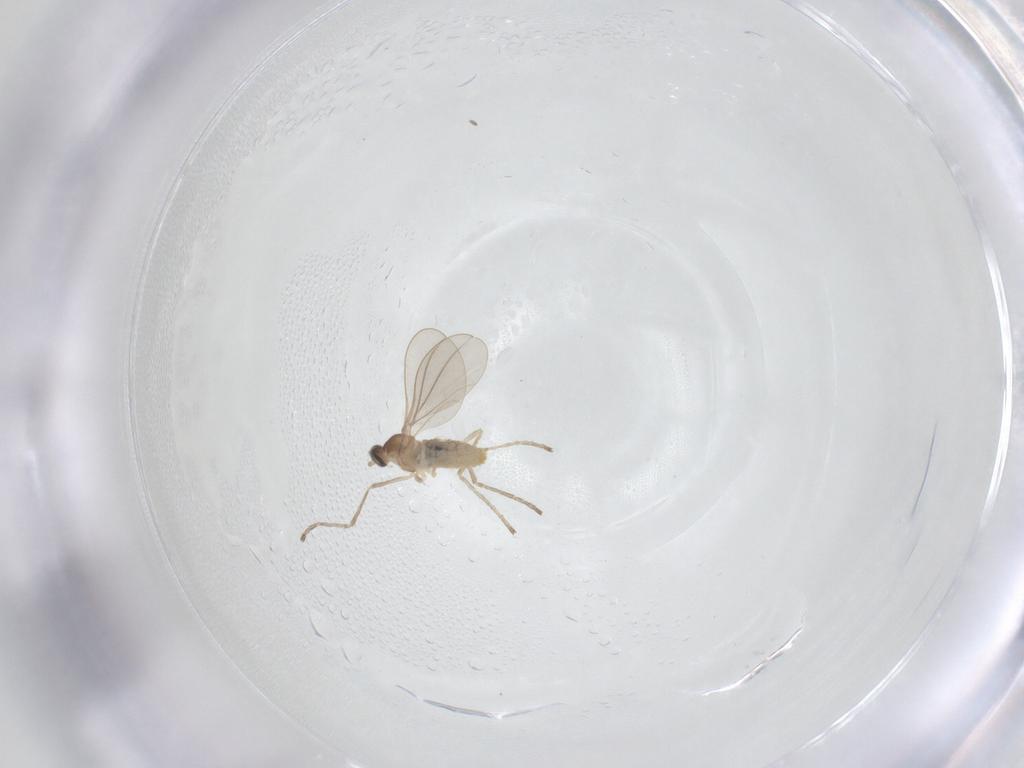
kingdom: Animalia
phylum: Arthropoda
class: Insecta
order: Diptera
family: Cecidomyiidae
